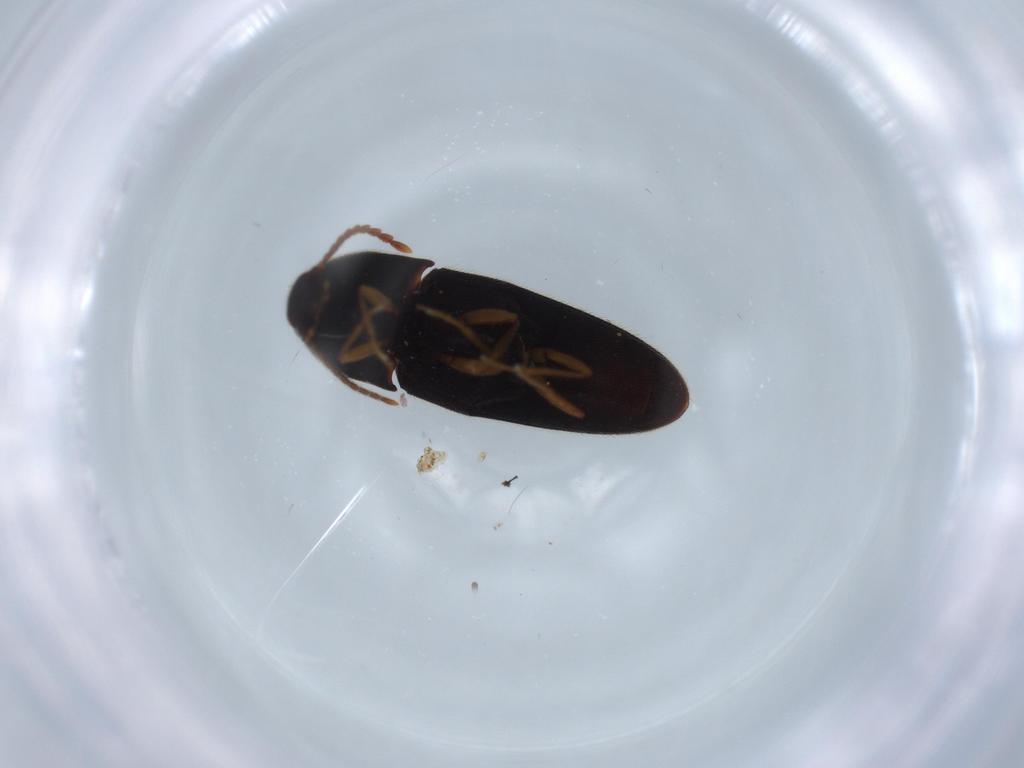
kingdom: Animalia
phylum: Arthropoda
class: Insecta
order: Coleoptera
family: Elateridae
